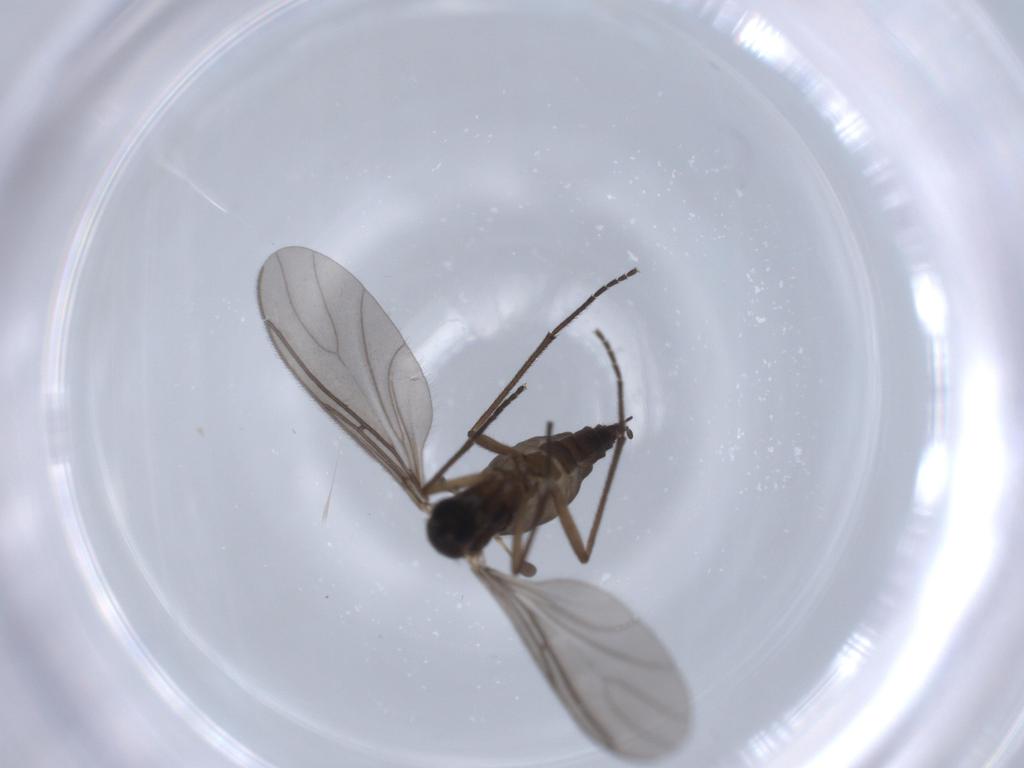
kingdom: Animalia
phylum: Arthropoda
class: Insecta
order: Diptera
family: Sciaridae
